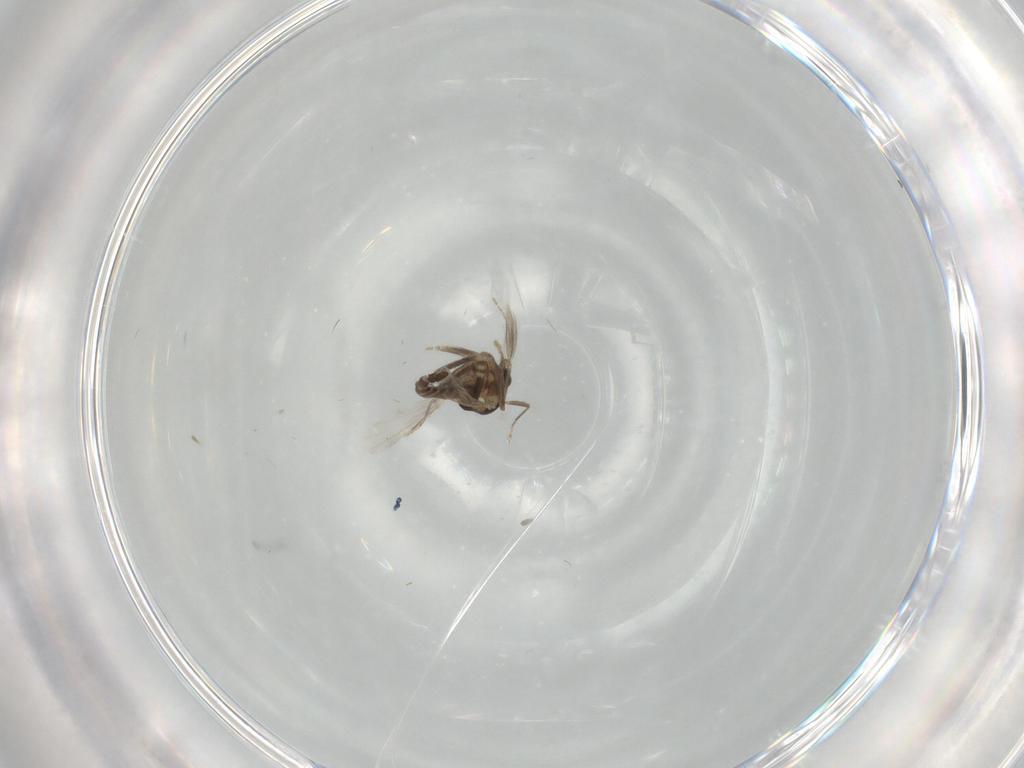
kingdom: Animalia
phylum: Arthropoda
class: Insecta
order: Diptera
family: Ceratopogonidae
